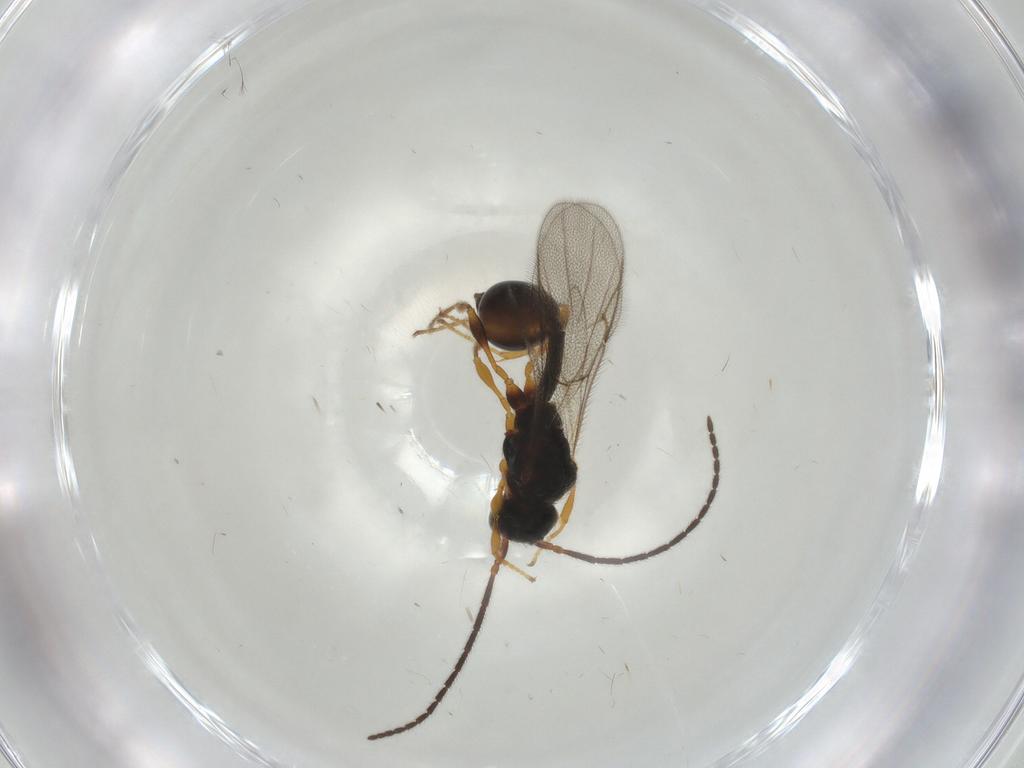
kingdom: Animalia
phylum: Arthropoda
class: Insecta
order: Hymenoptera
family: Diapriidae
